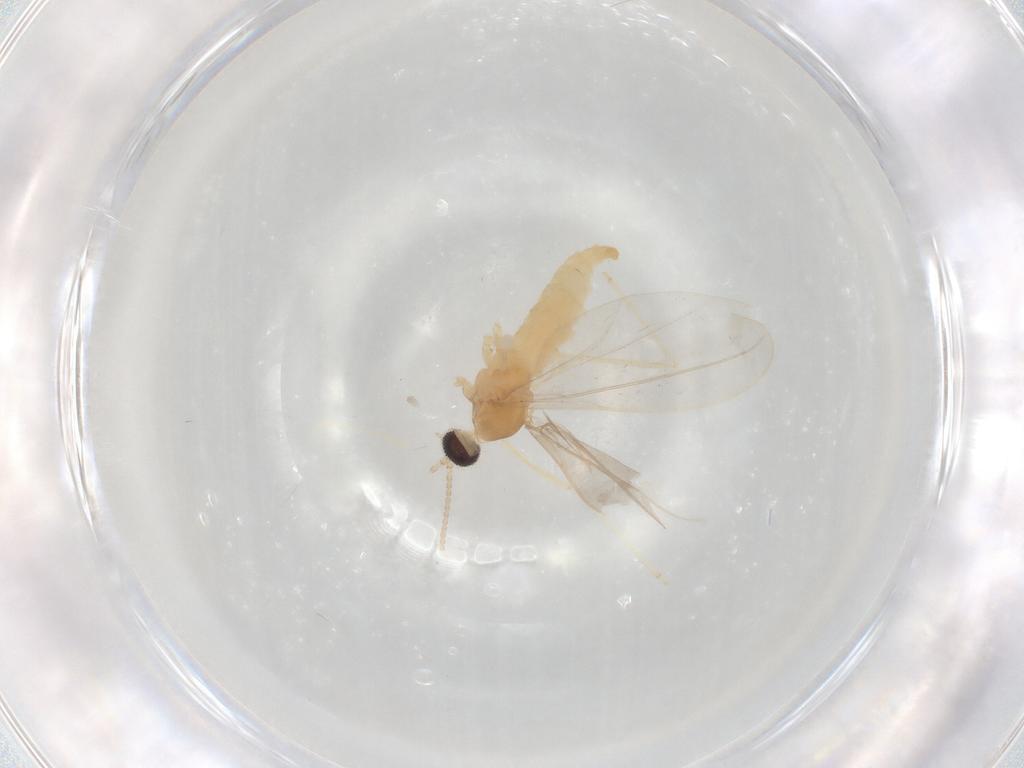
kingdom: Animalia
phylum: Arthropoda
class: Insecta
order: Diptera
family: Cecidomyiidae
